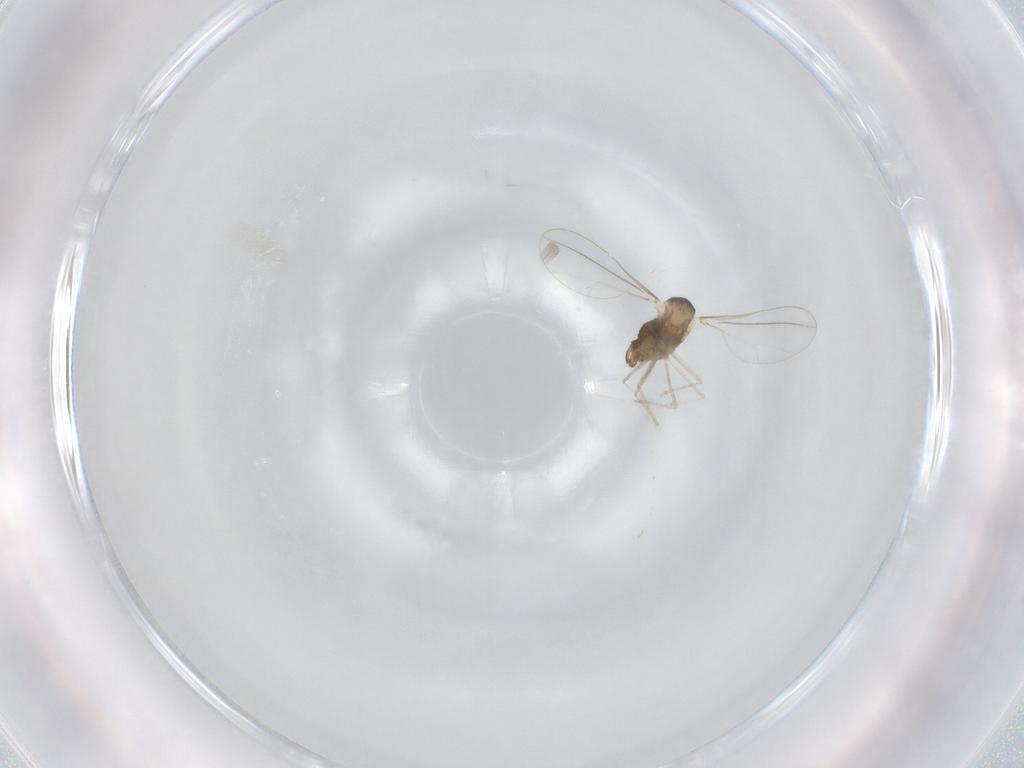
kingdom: Animalia
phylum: Arthropoda
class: Insecta
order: Diptera
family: Cecidomyiidae
